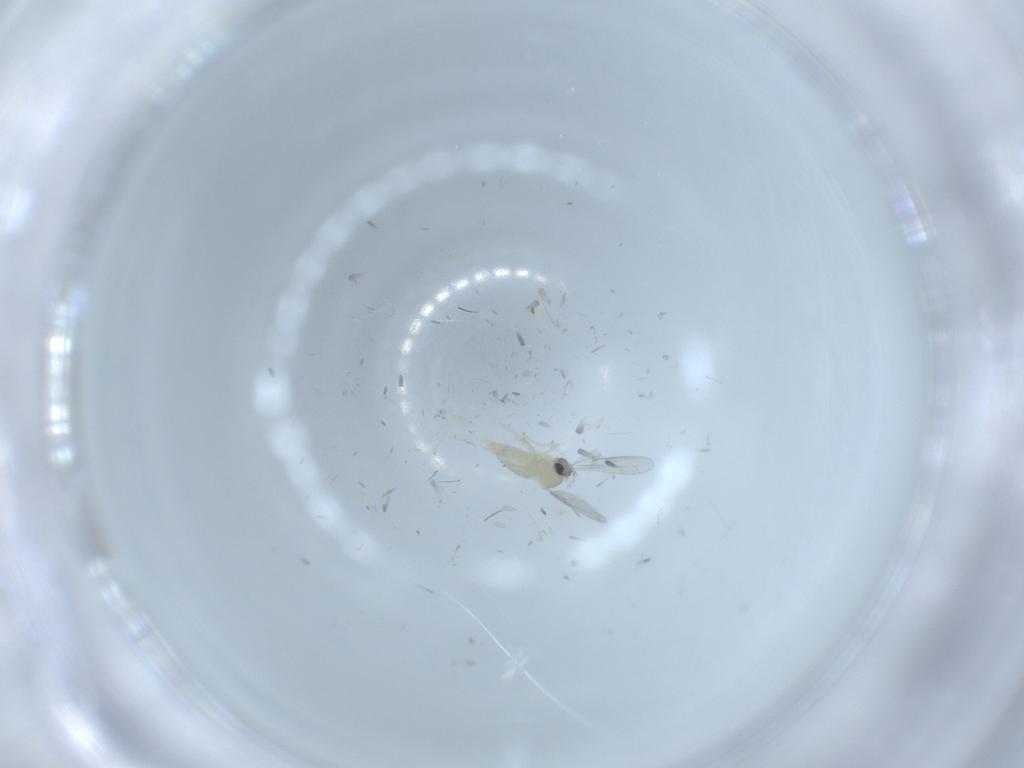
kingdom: Animalia
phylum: Arthropoda
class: Insecta
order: Diptera
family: Cecidomyiidae
